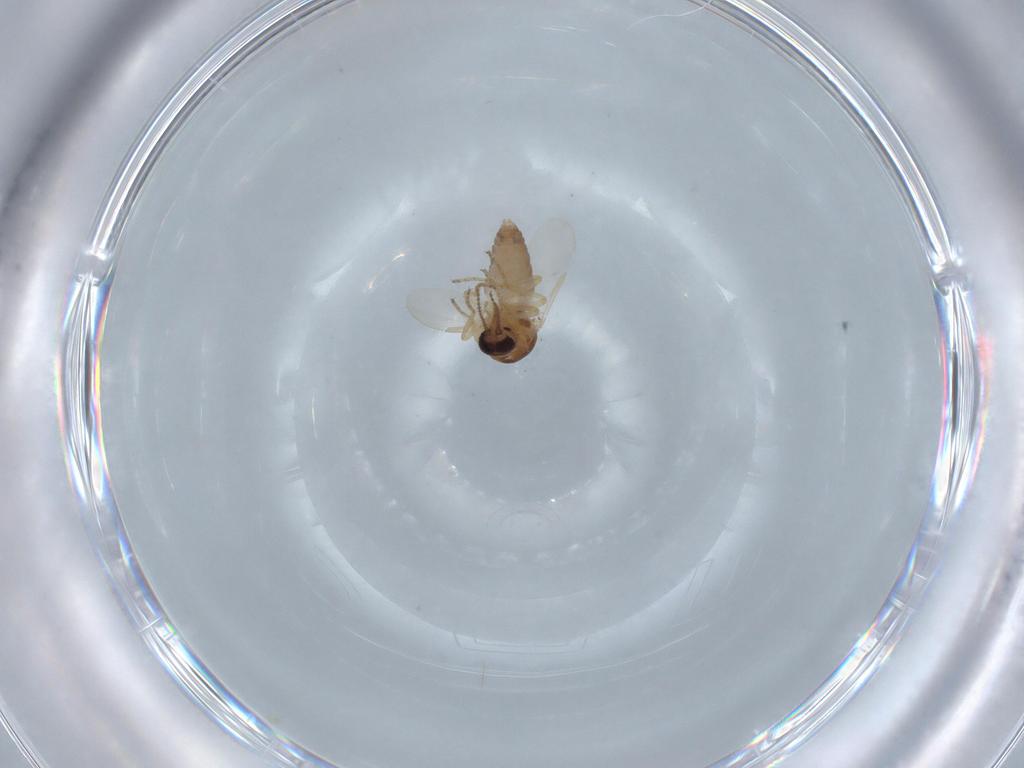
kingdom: Animalia
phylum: Arthropoda
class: Insecta
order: Diptera
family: Ceratopogonidae
